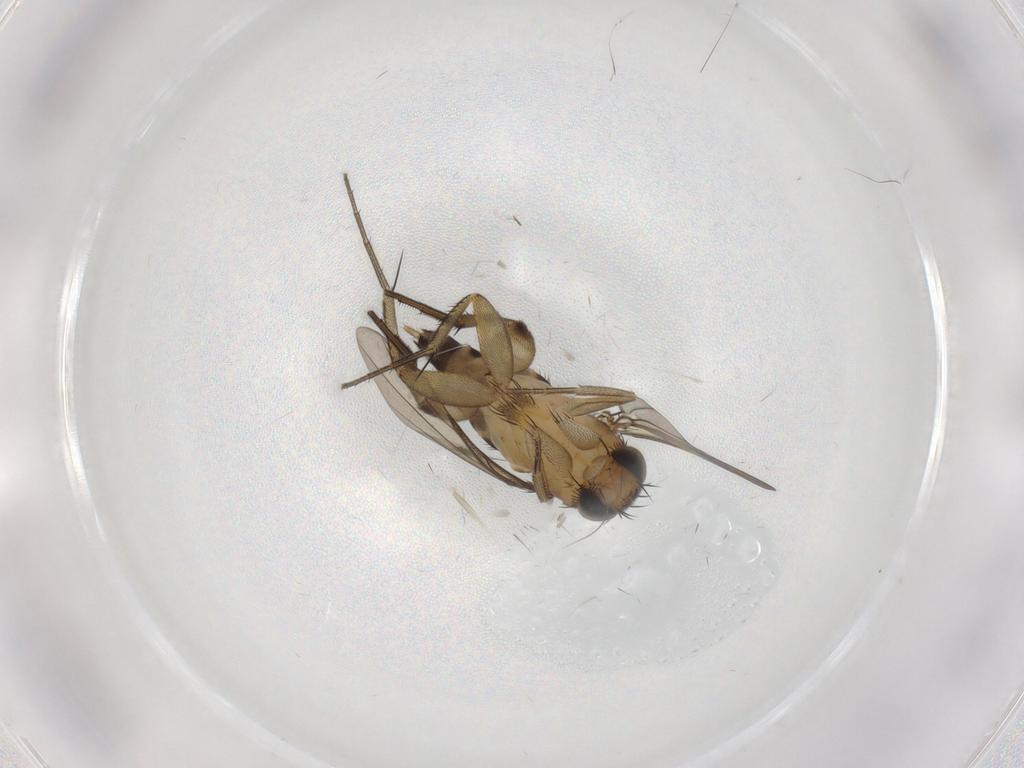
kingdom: Animalia
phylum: Arthropoda
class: Insecta
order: Diptera
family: Phoridae
